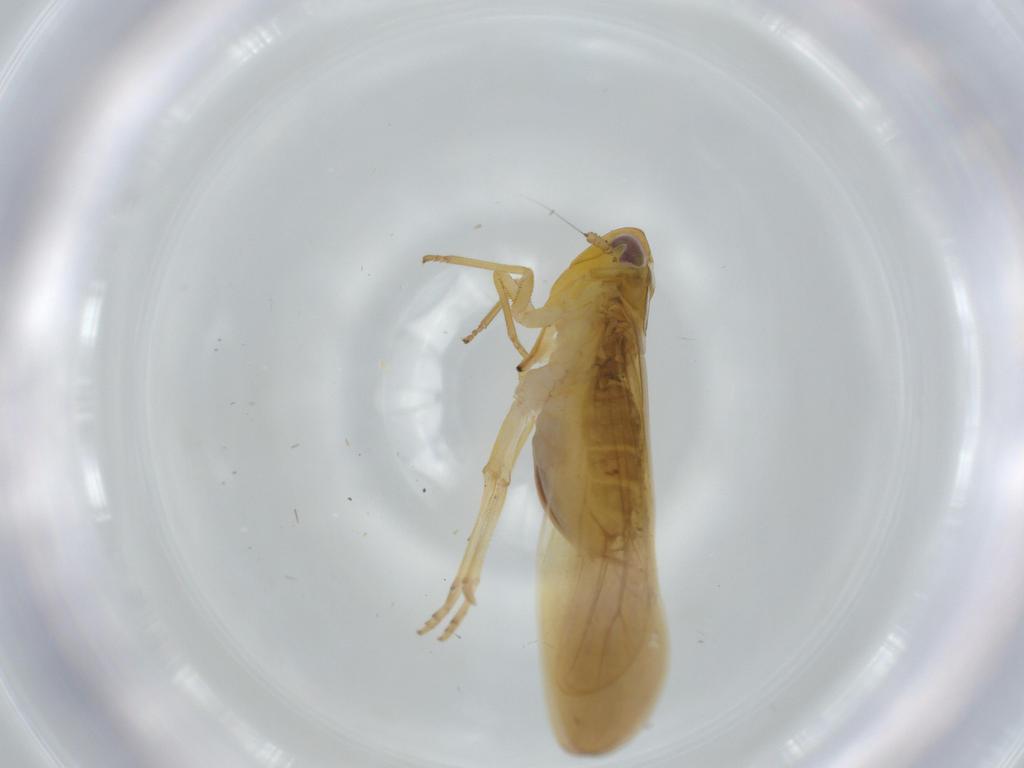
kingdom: Animalia
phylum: Arthropoda
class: Insecta
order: Hemiptera
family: Delphacidae
